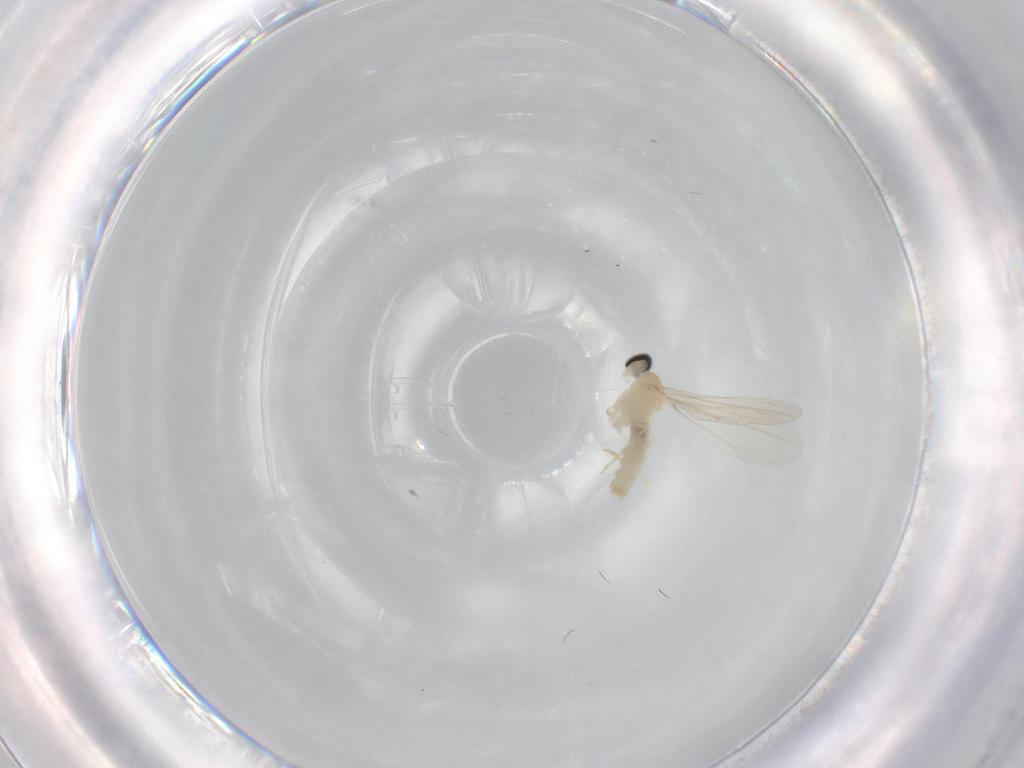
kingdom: Animalia
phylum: Arthropoda
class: Insecta
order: Diptera
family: Cecidomyiidae
